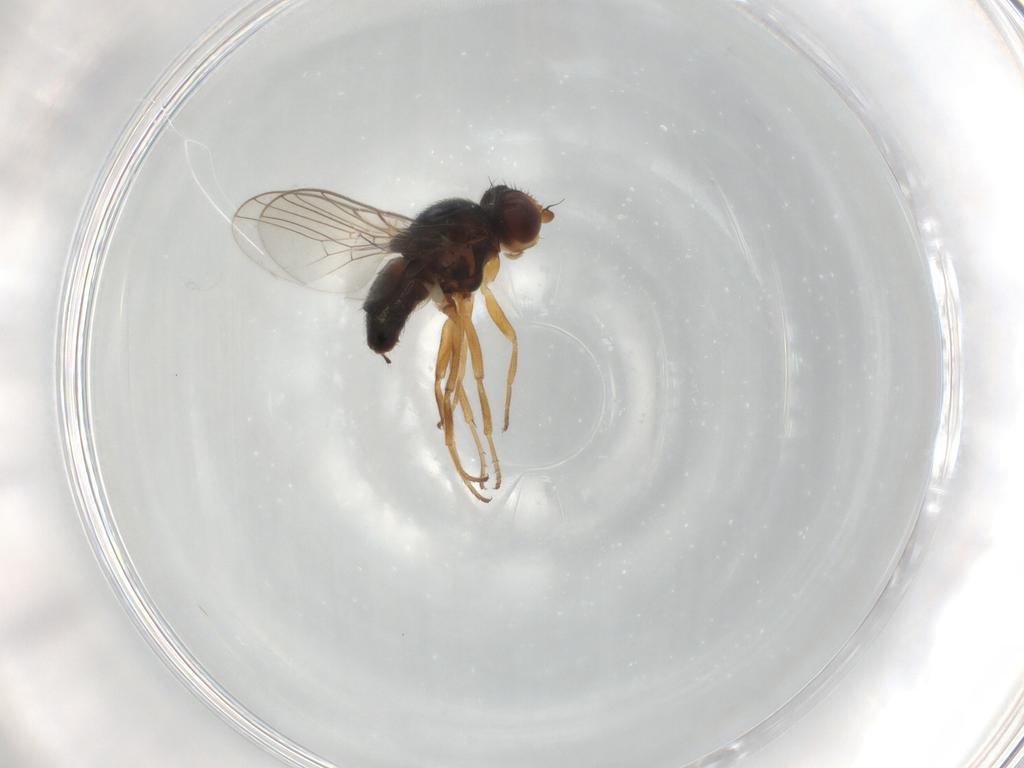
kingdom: Animalia
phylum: Arthropoda
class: Insecta
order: Diptera
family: Chloropidae
